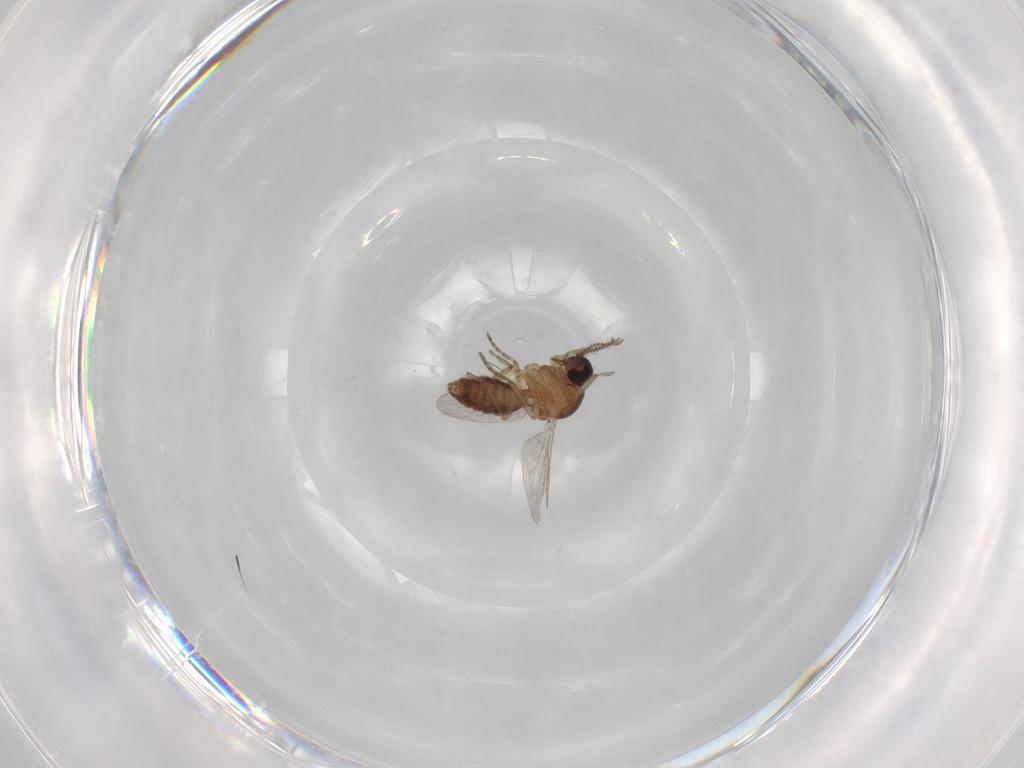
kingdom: Animalia
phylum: Arthropoda
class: Insecta
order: Diptera
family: Ceratopogonidae
